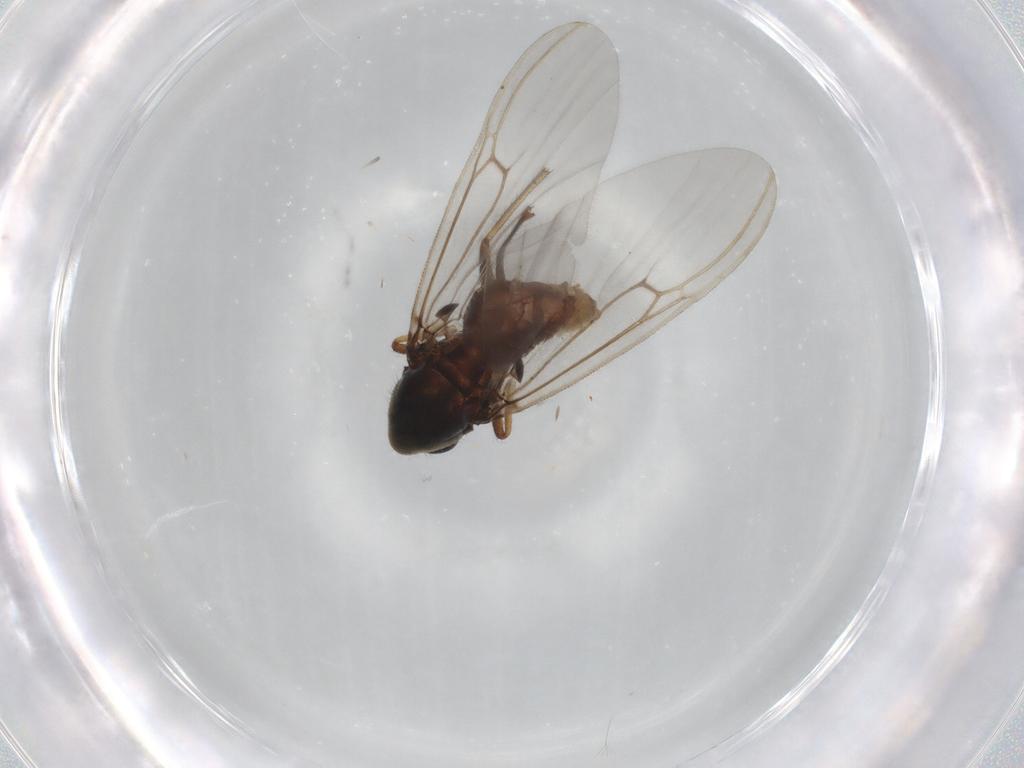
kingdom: Animalia
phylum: Arthropoda
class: Insecta
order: Diptera
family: Ceratopogonidae
